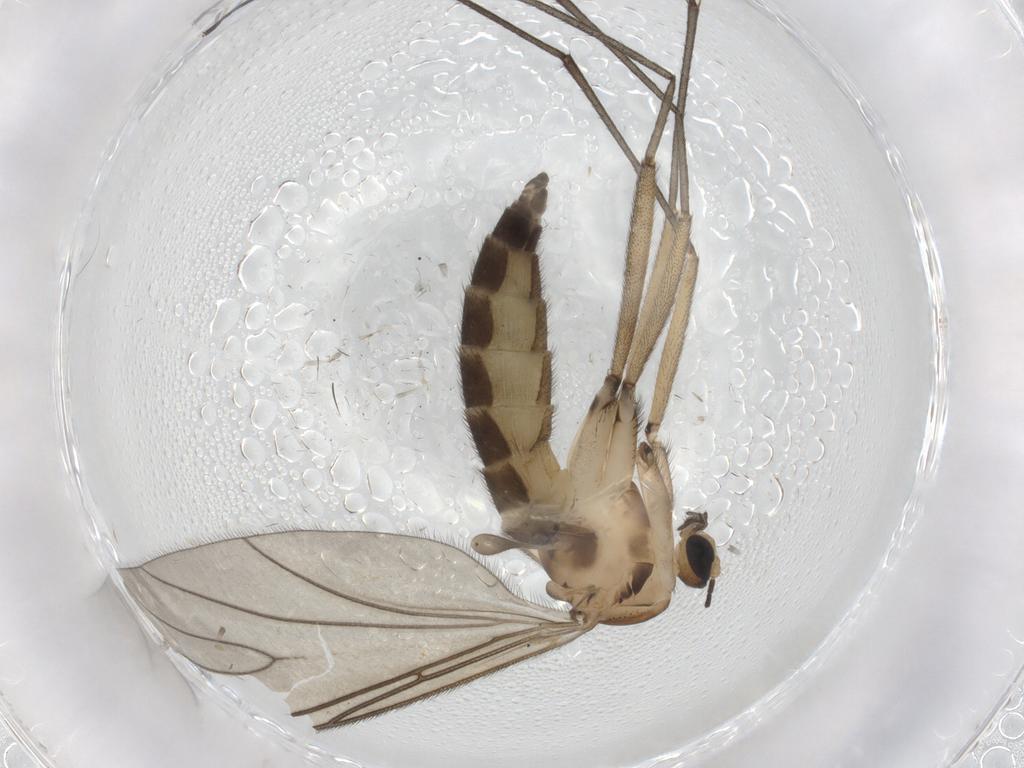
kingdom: Animalia
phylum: Arthropoda
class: Insecta
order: Diptera
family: Sciaridae
